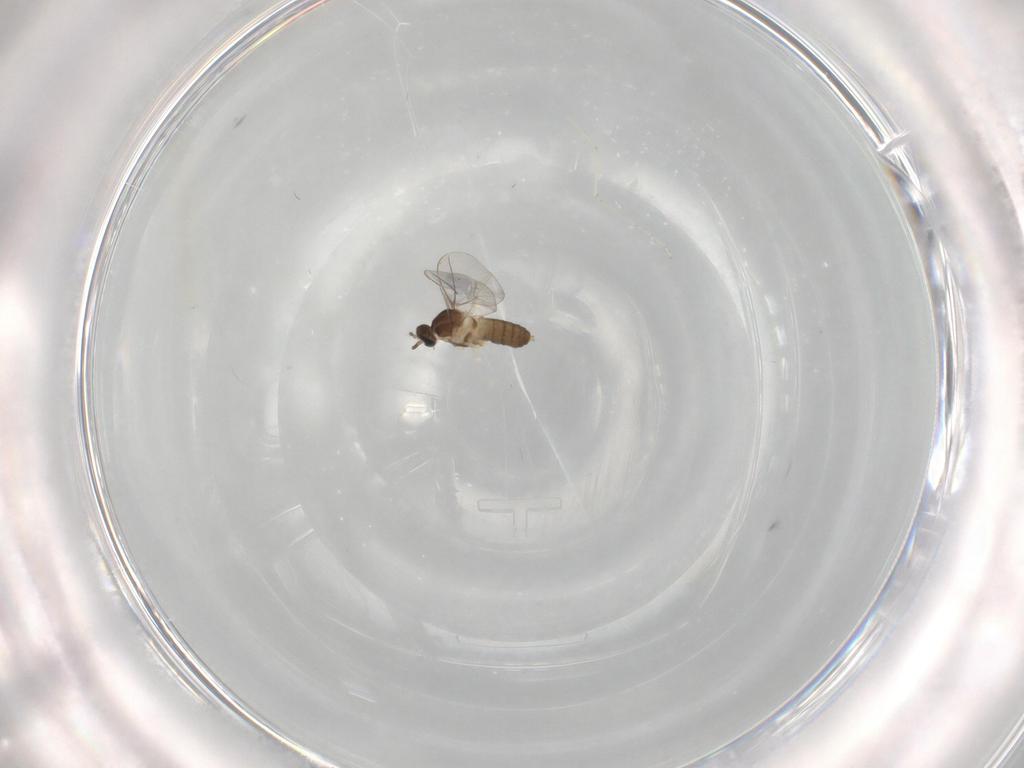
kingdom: Animalia
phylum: Arthropoda
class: Insecta
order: Diptera
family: Cecidomyiidae
